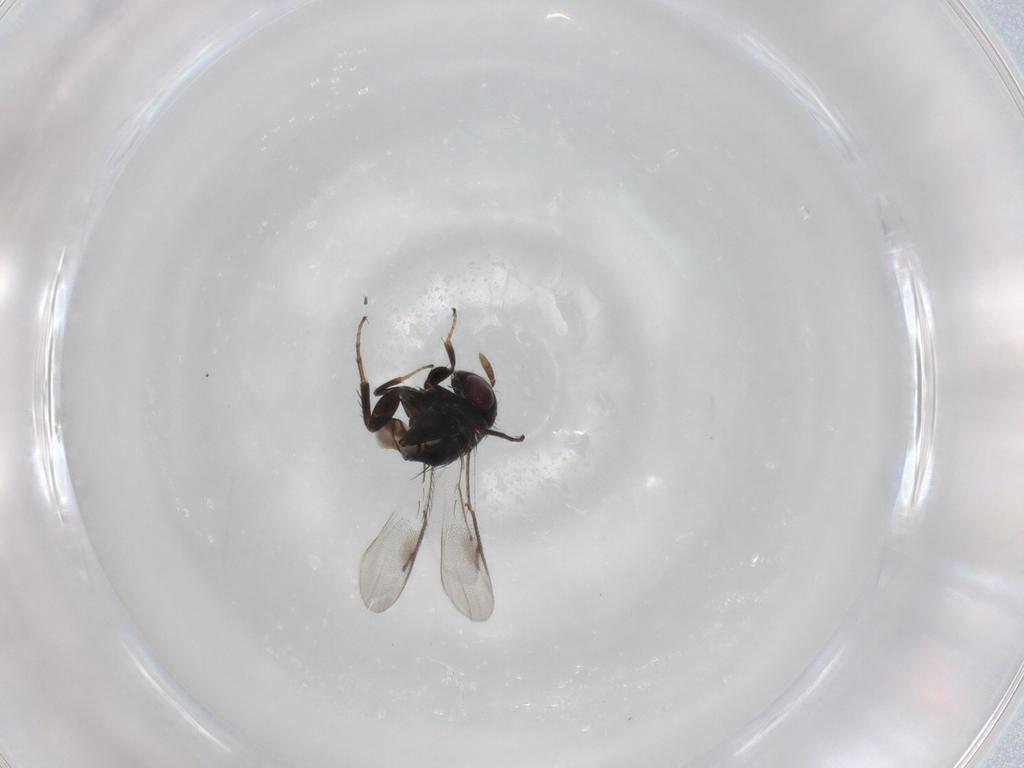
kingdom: Animalia
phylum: Arthropoda
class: Insecta
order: Hymenoptera
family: Pirenidae
